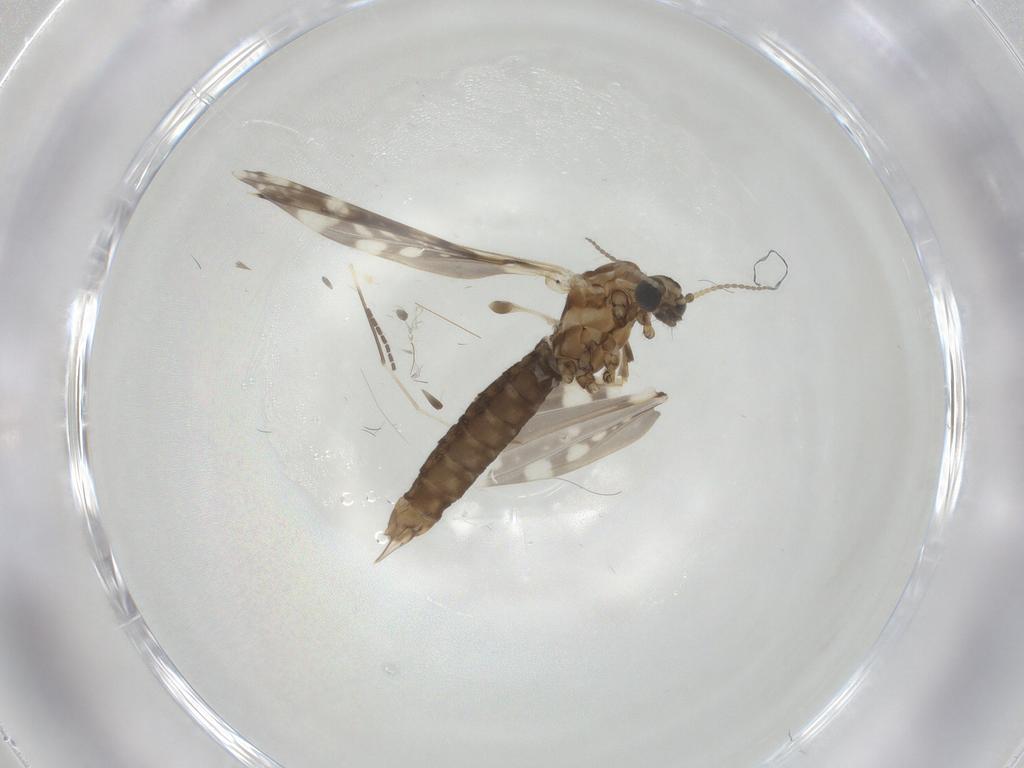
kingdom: Animalia
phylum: Arthropoda
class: Insecta
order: Diptera
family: Limoniidae
